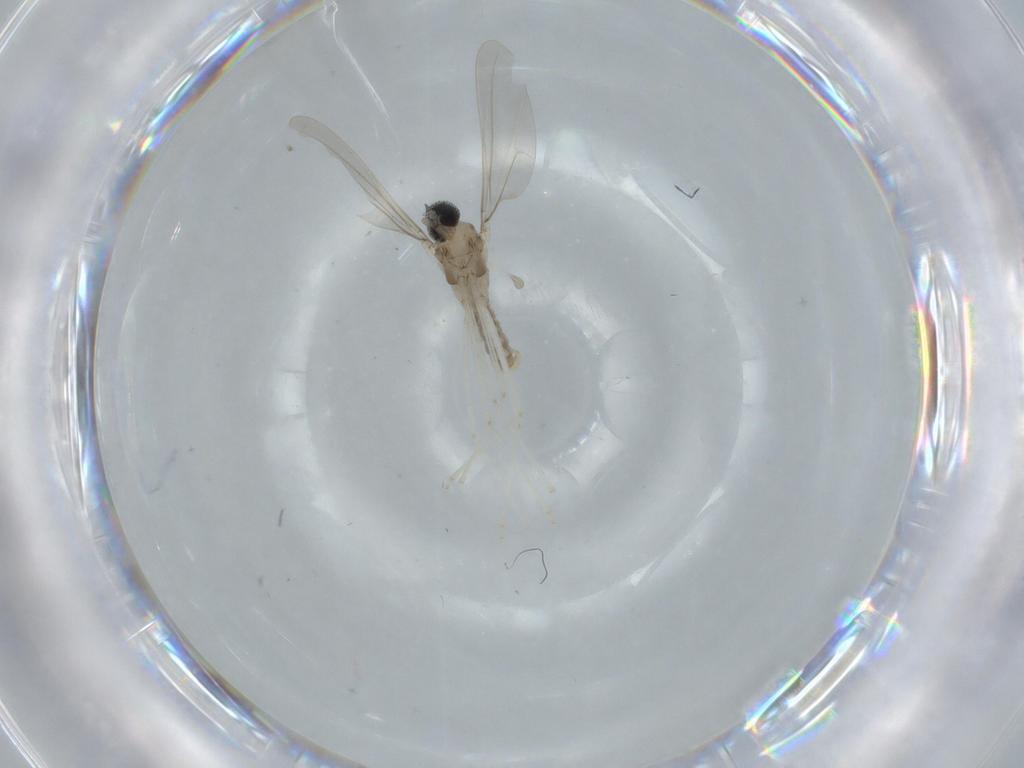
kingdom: Animalia
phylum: Arthropoda
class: Insecta
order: Diptera
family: Cecidomyiidae
